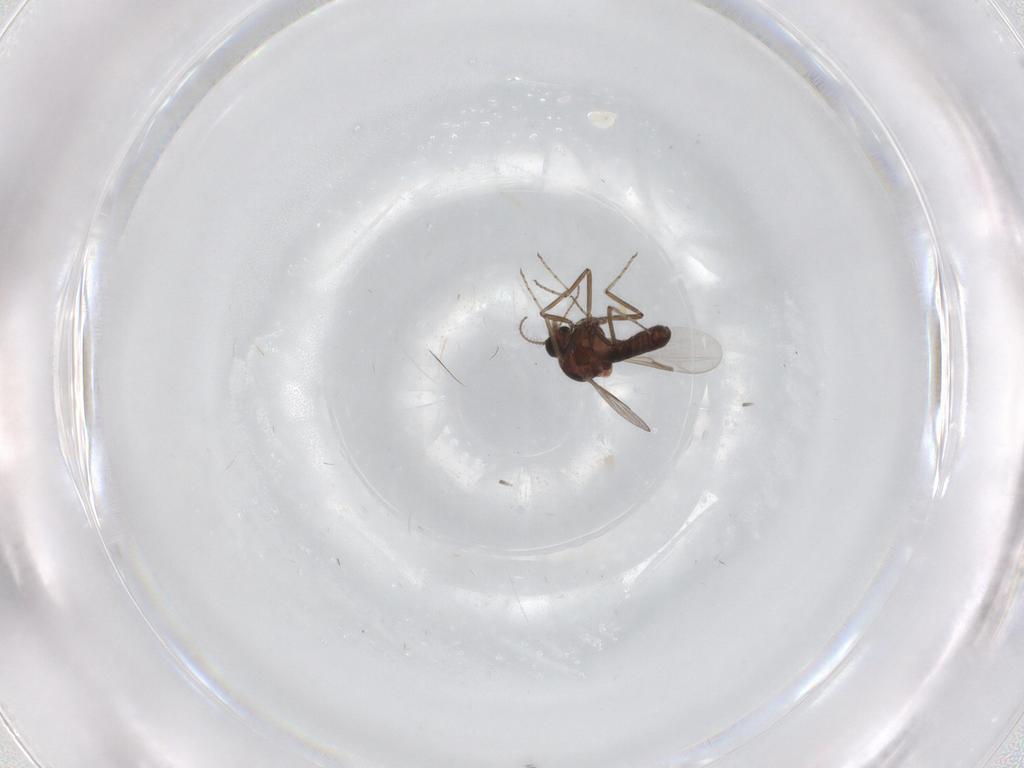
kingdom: Animalia
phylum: Arthropoda
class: Insecta
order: Diptera
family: Ceratopogonidae
